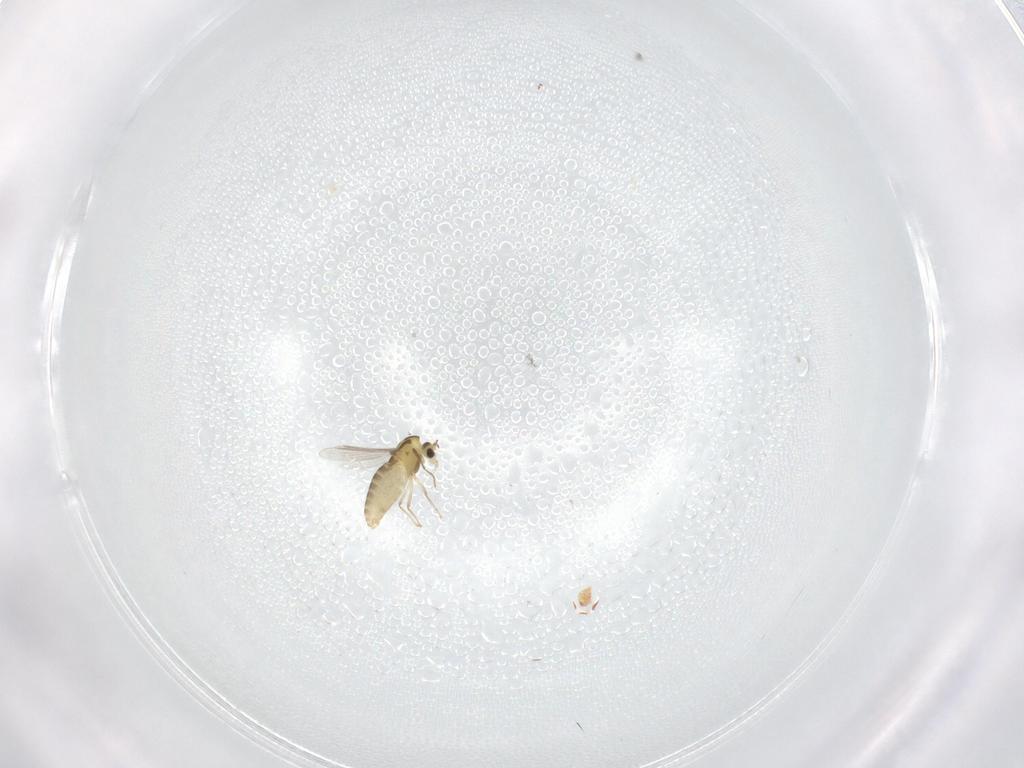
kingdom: Animalia
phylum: Arthropoda
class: Insecta
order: Diptera
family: Chironomidae
